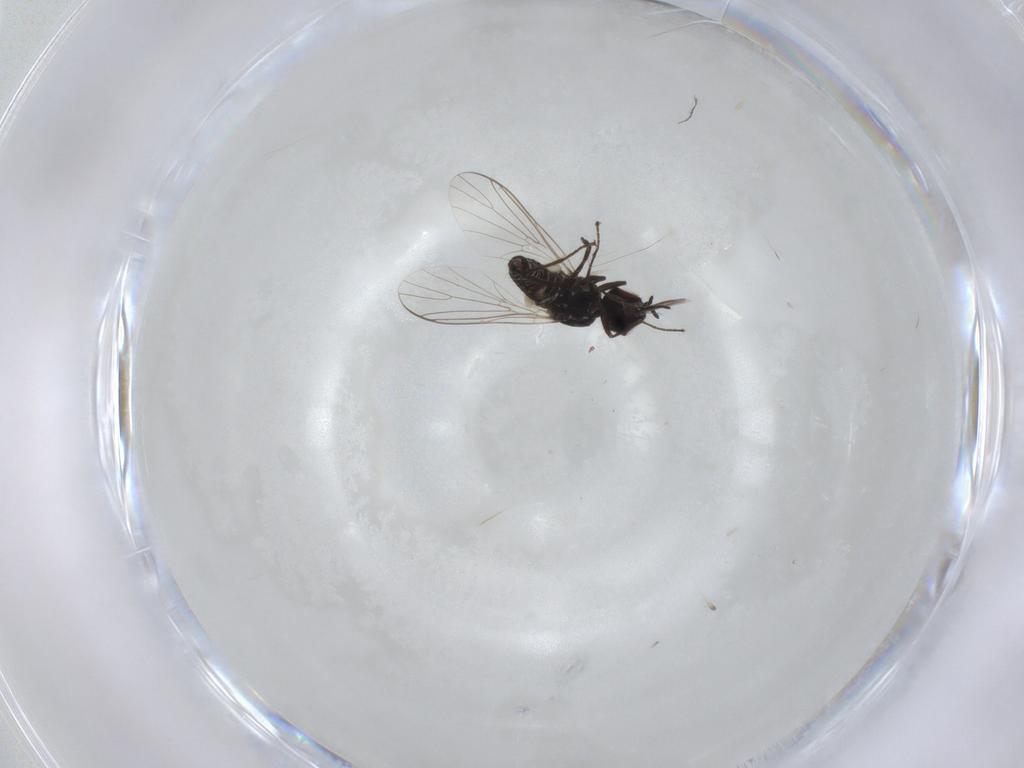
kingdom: Animalia
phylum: Arthropoda
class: Insecta
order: Diptera
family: Bombyliidae
